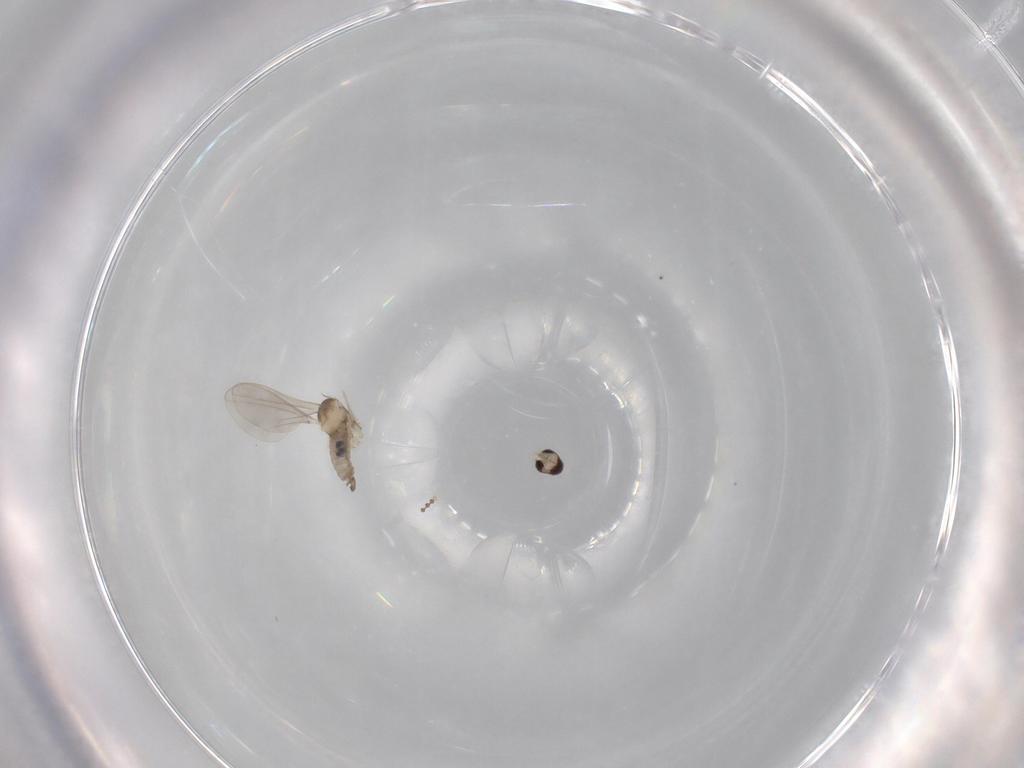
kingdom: Animalia
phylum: Arthropoda
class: Insecta
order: Diptera
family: Cecidomyiidae
